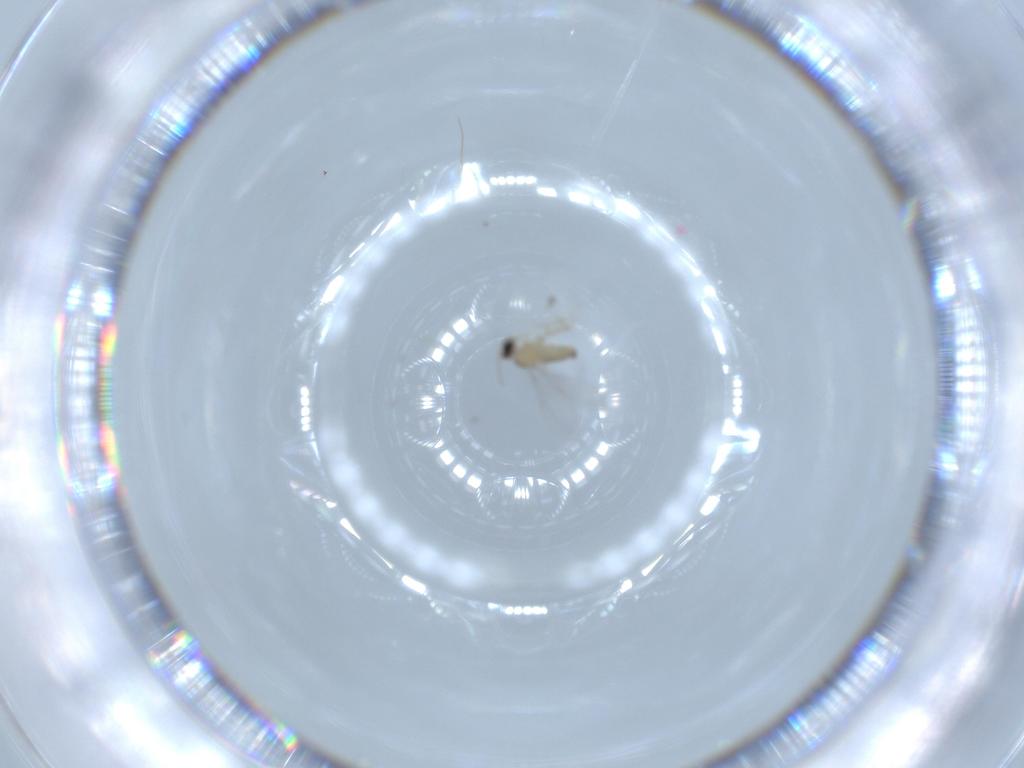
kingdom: Animalia
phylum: Arthropoda
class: Insecta
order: Diptera
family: Cecidomyiidae
